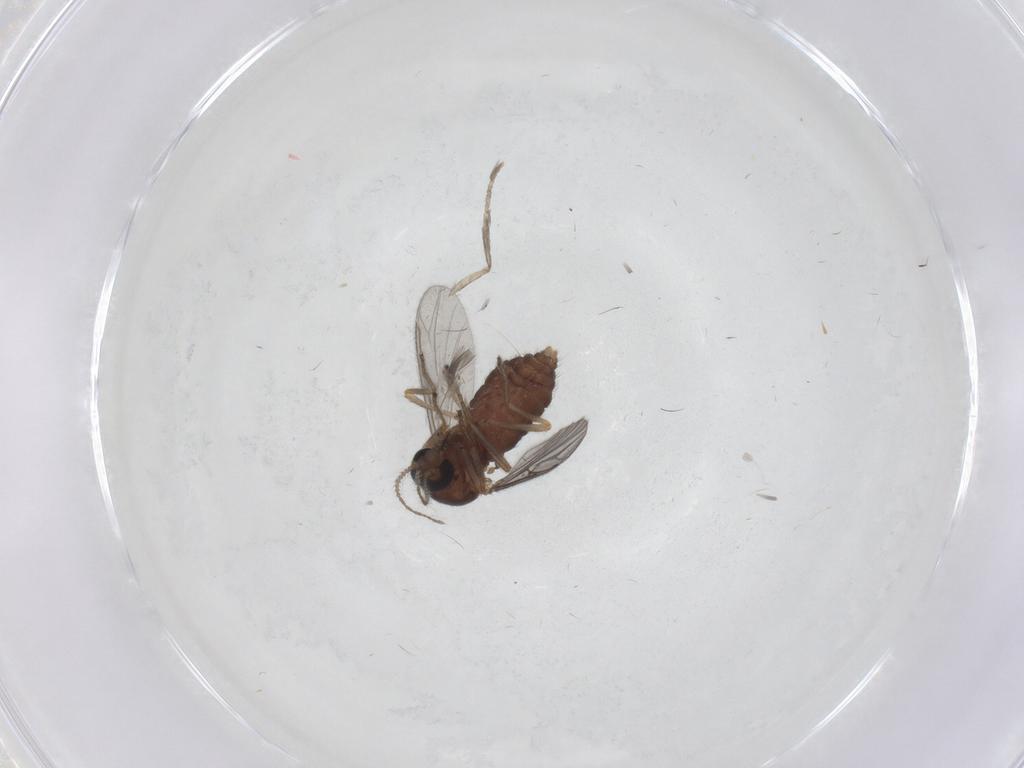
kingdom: Animalia
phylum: Arthropoda
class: Insecta
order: Diptera
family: Ceratopogonidae
